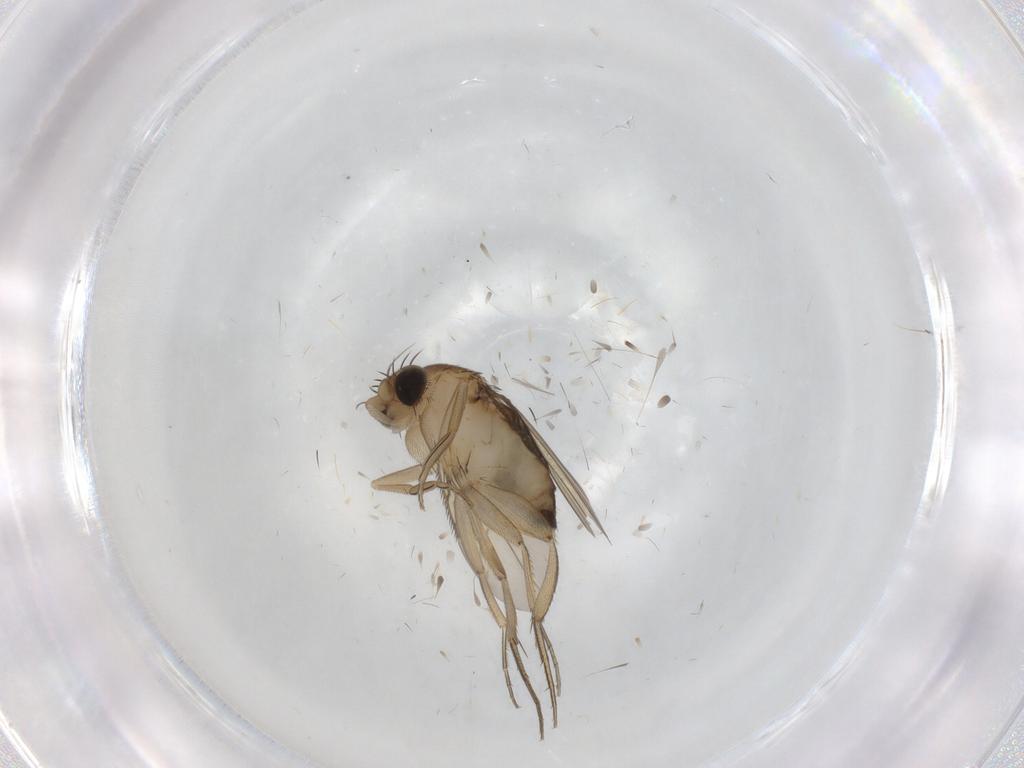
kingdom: Animalia
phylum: Arthropoda
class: Insecta
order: Diptera
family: Phoridae
